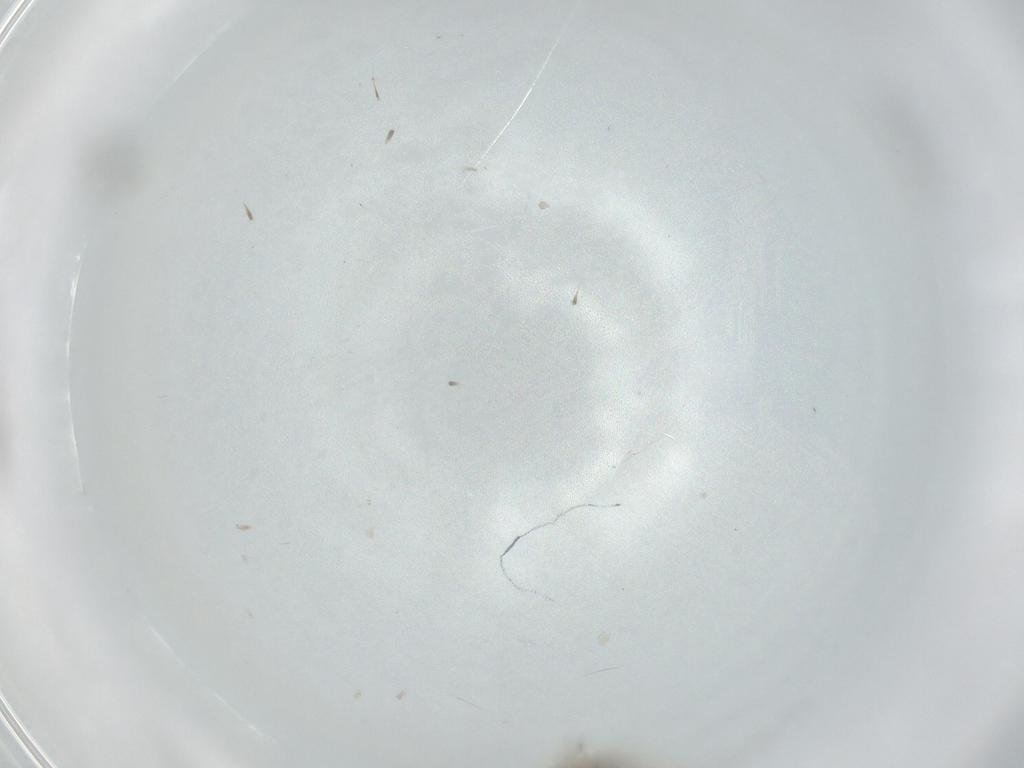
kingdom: Animalia
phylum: Arthropoda
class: Insecta
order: Diptera
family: Cecidomyiidae
